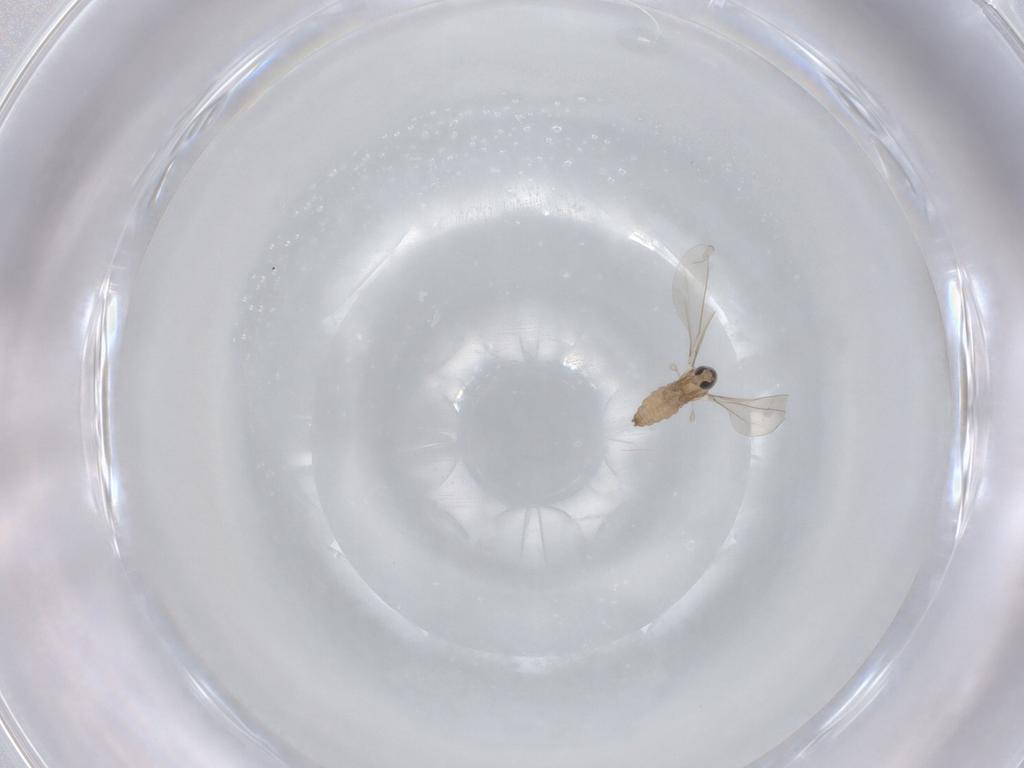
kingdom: Animalia
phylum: Arthropoda
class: Insecta
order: Diptera
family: Cecidomyiidae
